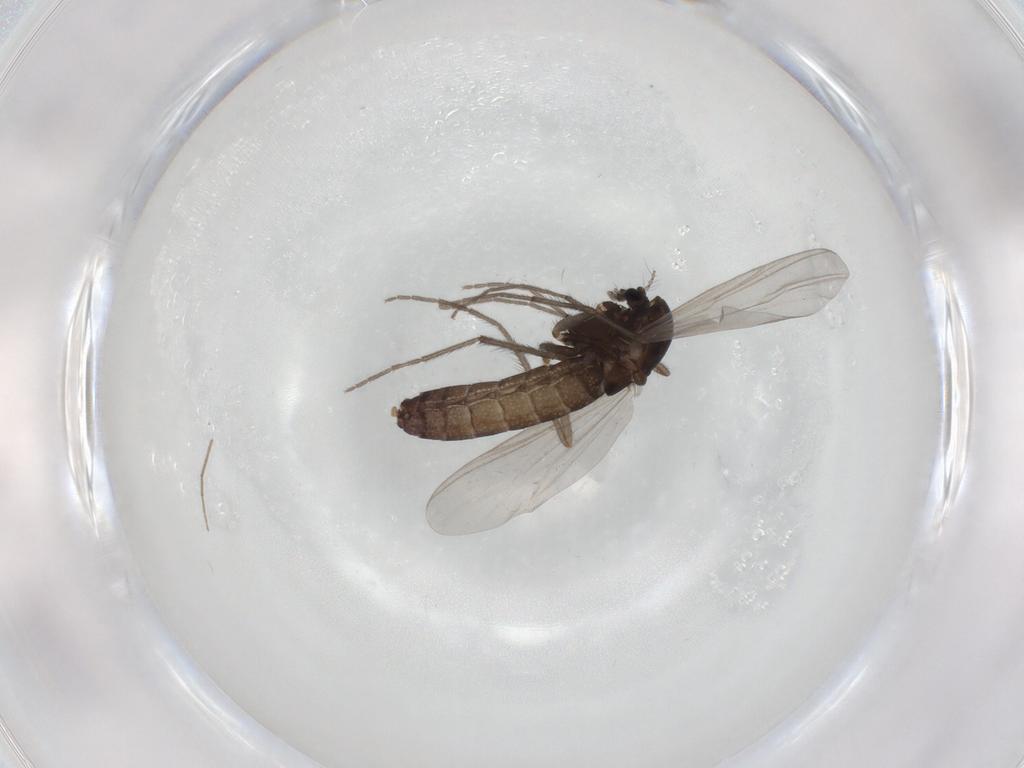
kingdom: Animalia
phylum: Arthropoda
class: Insecta
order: Diptera
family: Chironomidae
